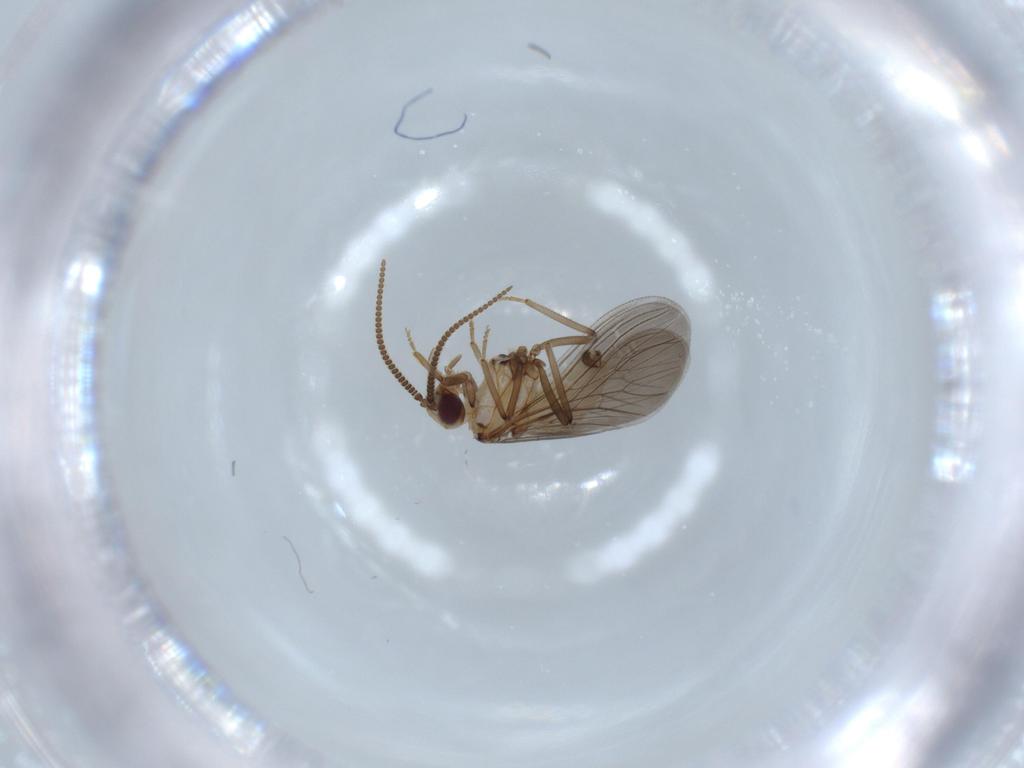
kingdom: Animalia
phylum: Arthropoda
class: Insecta
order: Neuroptera
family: Coniopterygidae
